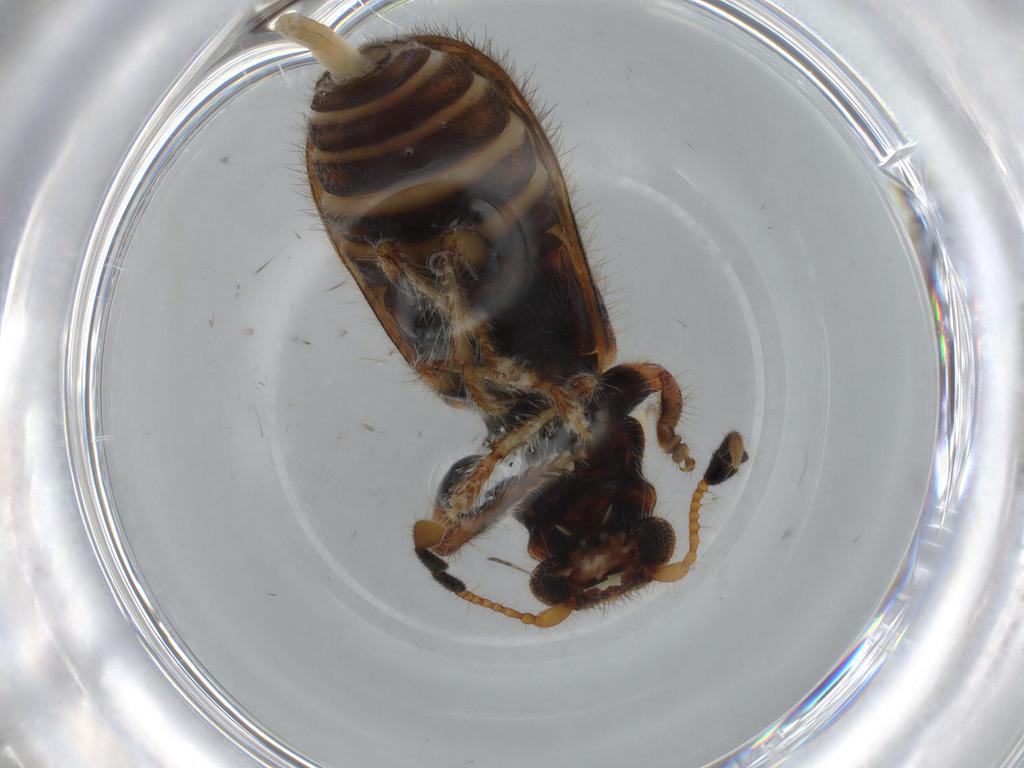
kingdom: Animalia
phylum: Arthropoda
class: Insecta
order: Coleoptera
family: Throscidae
